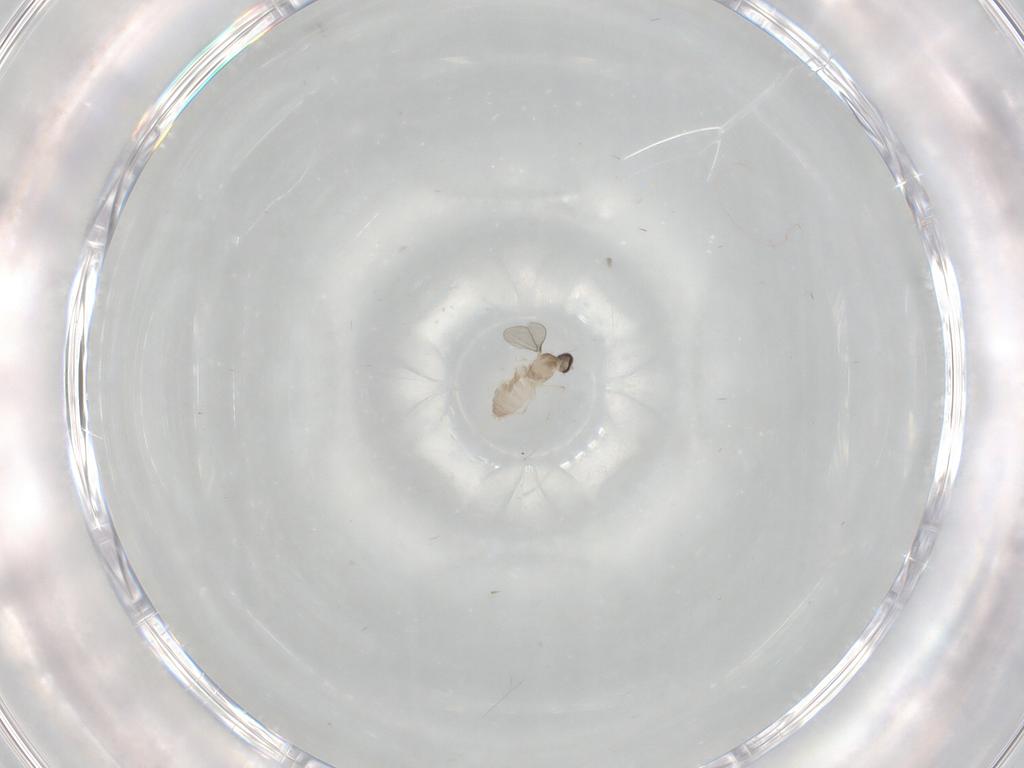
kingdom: Animalia
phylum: Arthropoda
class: Insecta
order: Diptera
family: Cecidomyiidae
